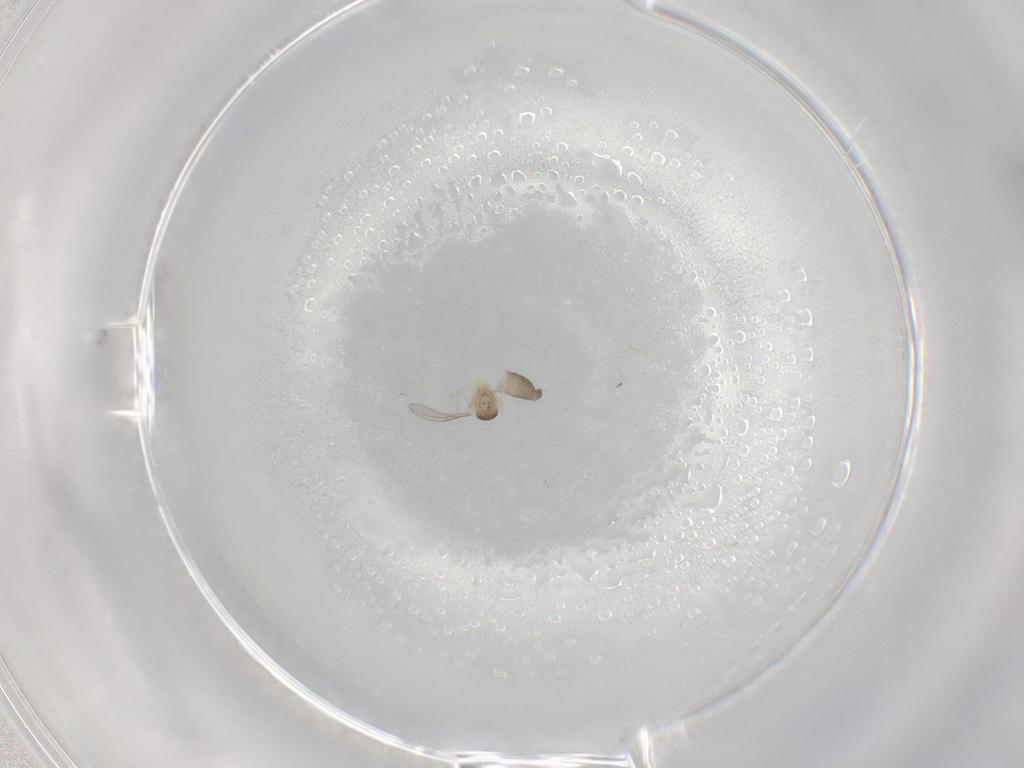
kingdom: Animalia
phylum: Arthropoda
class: Insecta
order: Diptera
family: Cecidomyiidae
